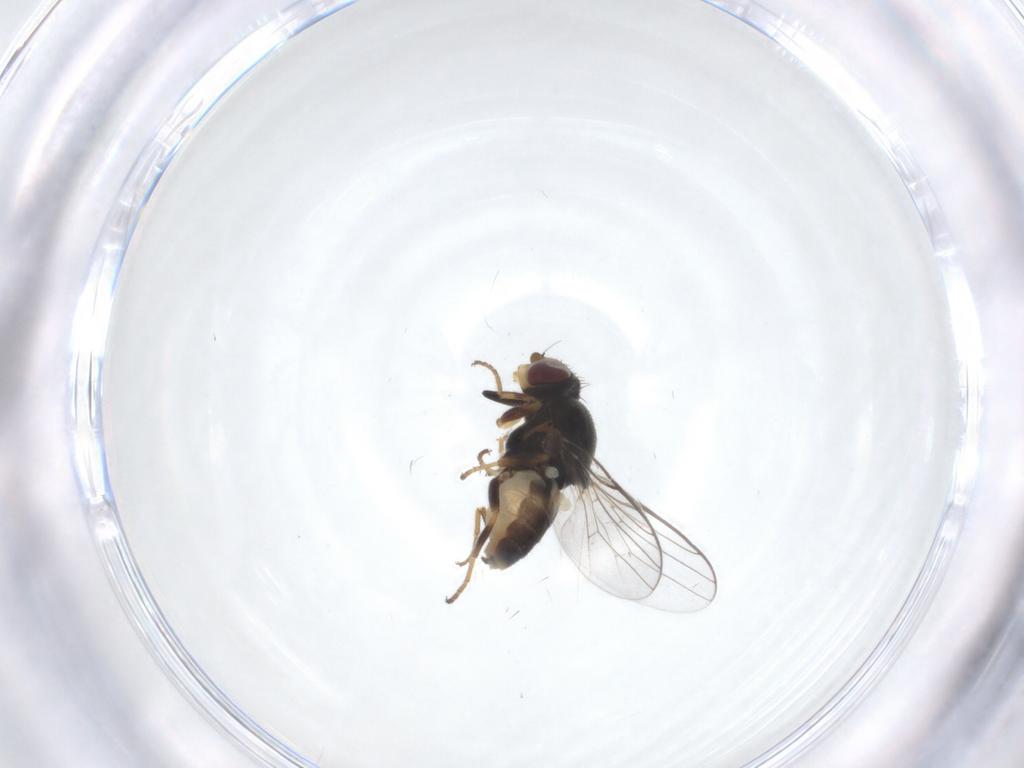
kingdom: Animalia
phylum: Arthropoda
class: Insecta
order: Diptera
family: Chloropidae
